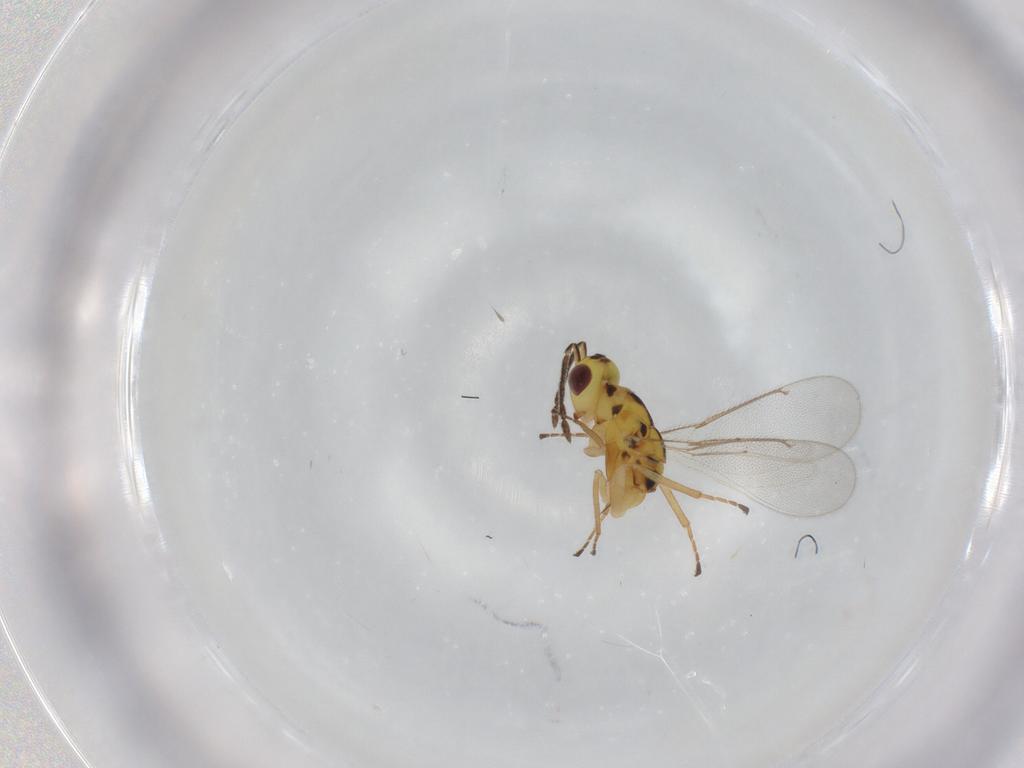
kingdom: Animalia
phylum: Arthropoda
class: Insecta
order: Hymenoptera
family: Eulophidae
